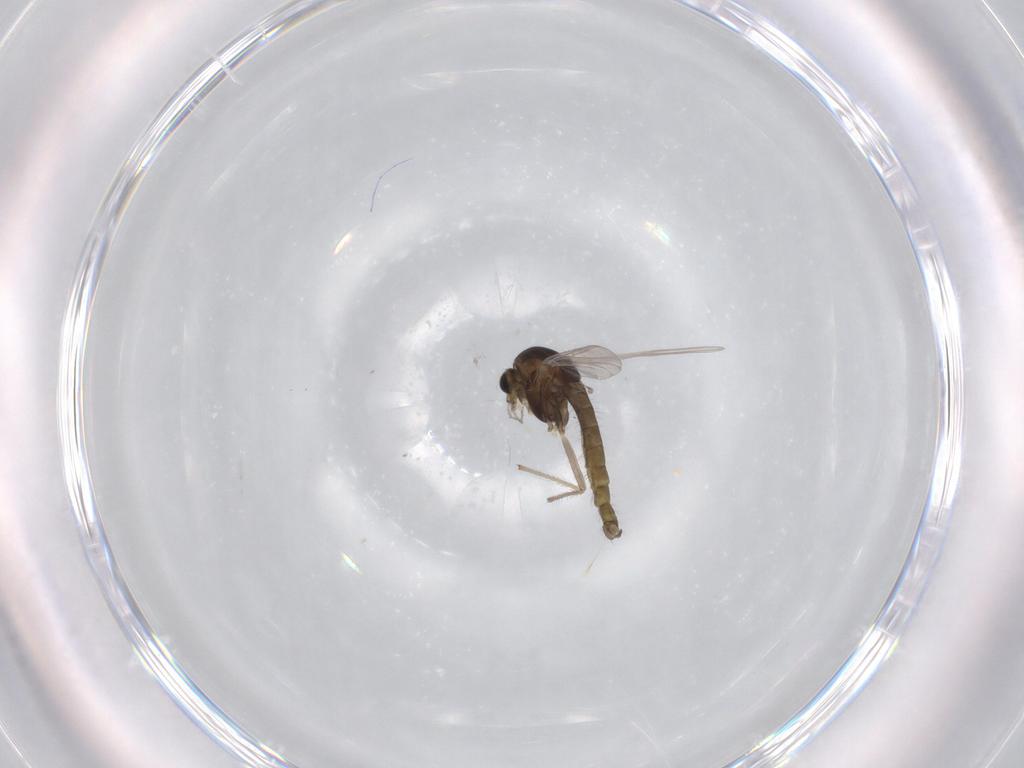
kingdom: Animalia
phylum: Arthropoda
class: Insecta
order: Diptera
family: Chironomidae
